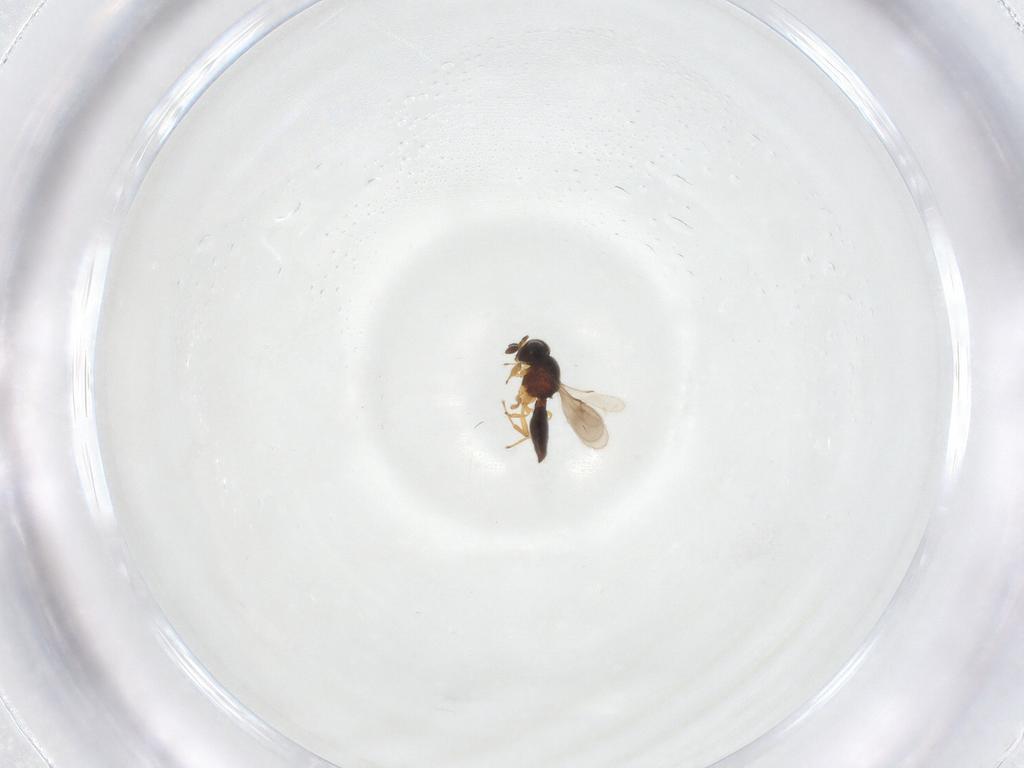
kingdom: Animalia
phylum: Arthropoda
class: Insecta
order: Hymenoptera
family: Scelionidae
